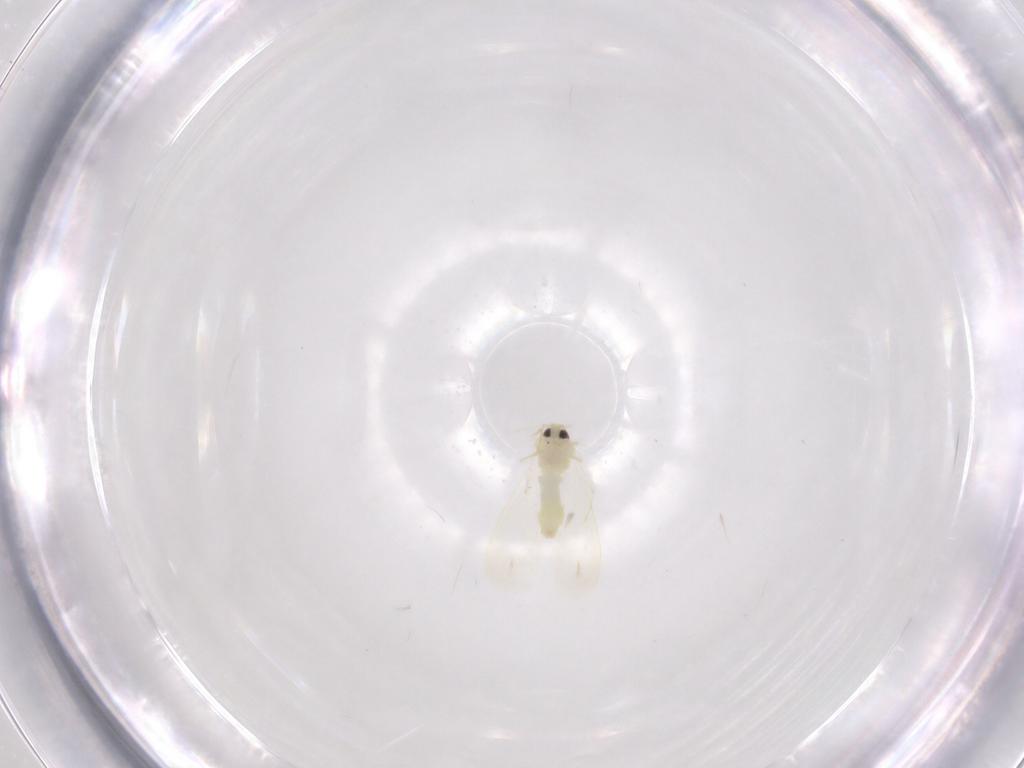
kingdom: Animalia
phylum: Arthropoda
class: Insecta
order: Hemiptera
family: Aleyrodidae
